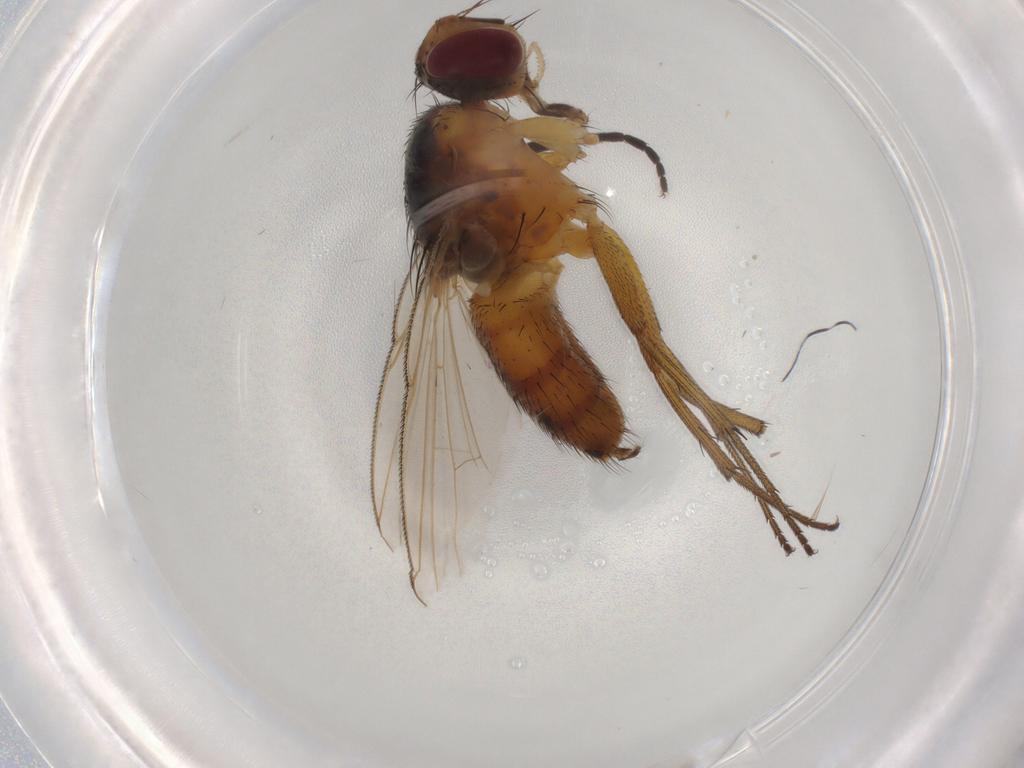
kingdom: Animalia
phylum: Arthropoda
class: Insecta
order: Diptera
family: Muscidae
